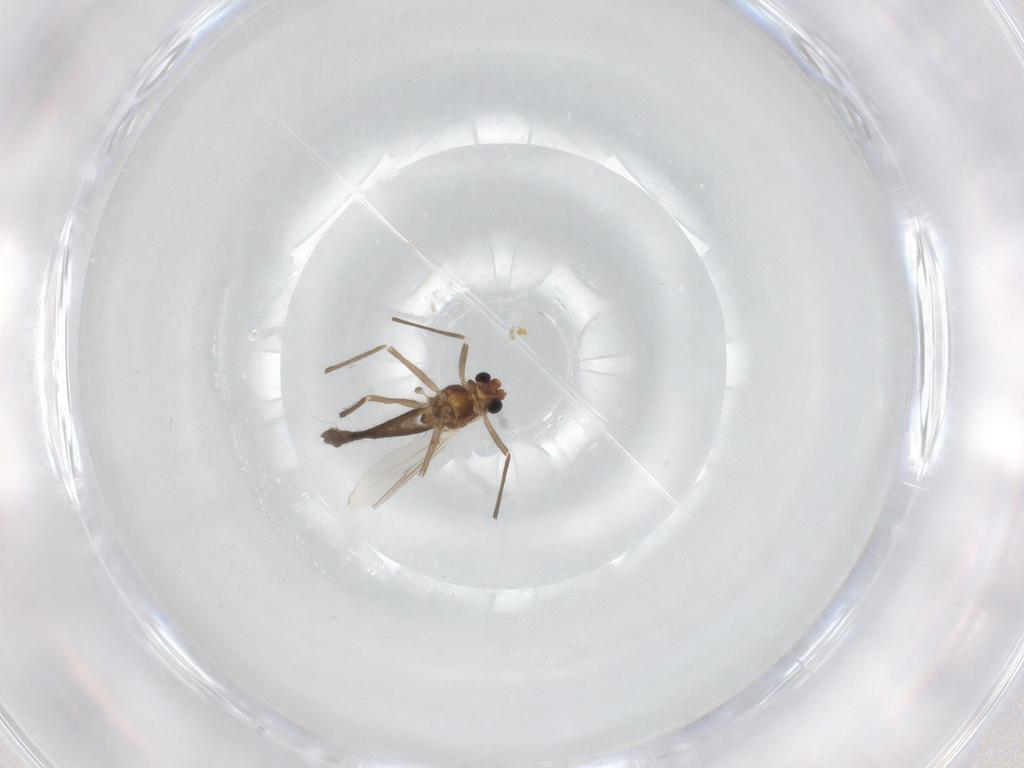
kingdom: Animalia
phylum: Arthropoda
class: Insecta
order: Diptera
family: Chironomidae
